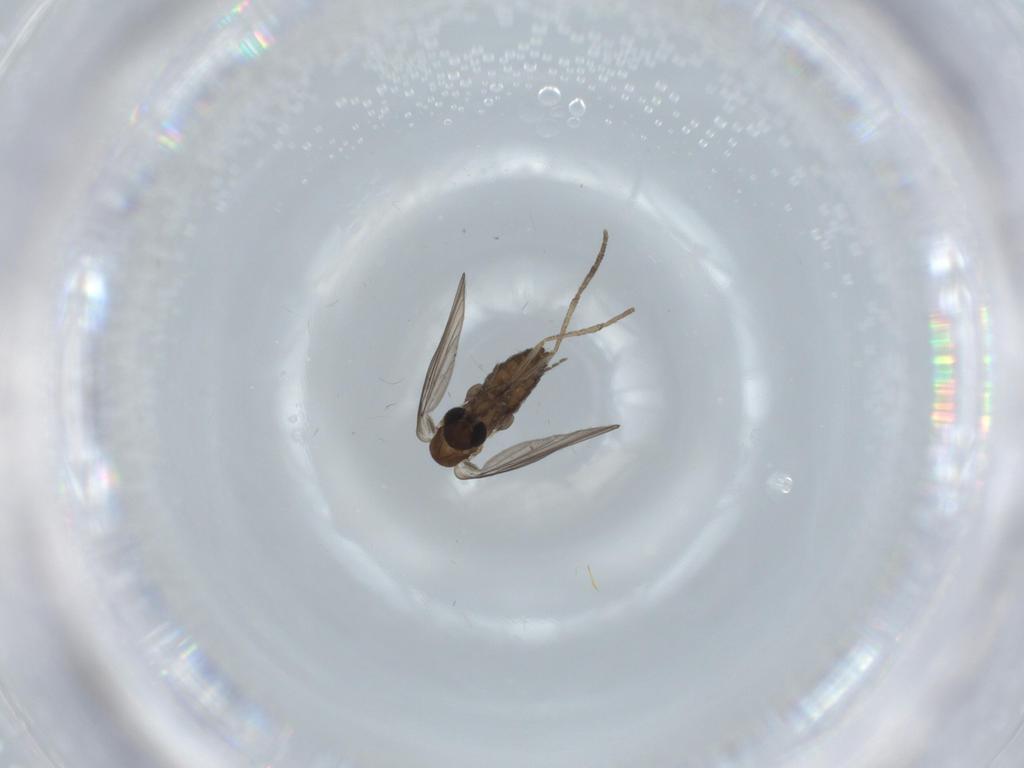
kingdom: Animalia
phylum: Arthropoda
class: Insecta
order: Diptera
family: Psychodidae
